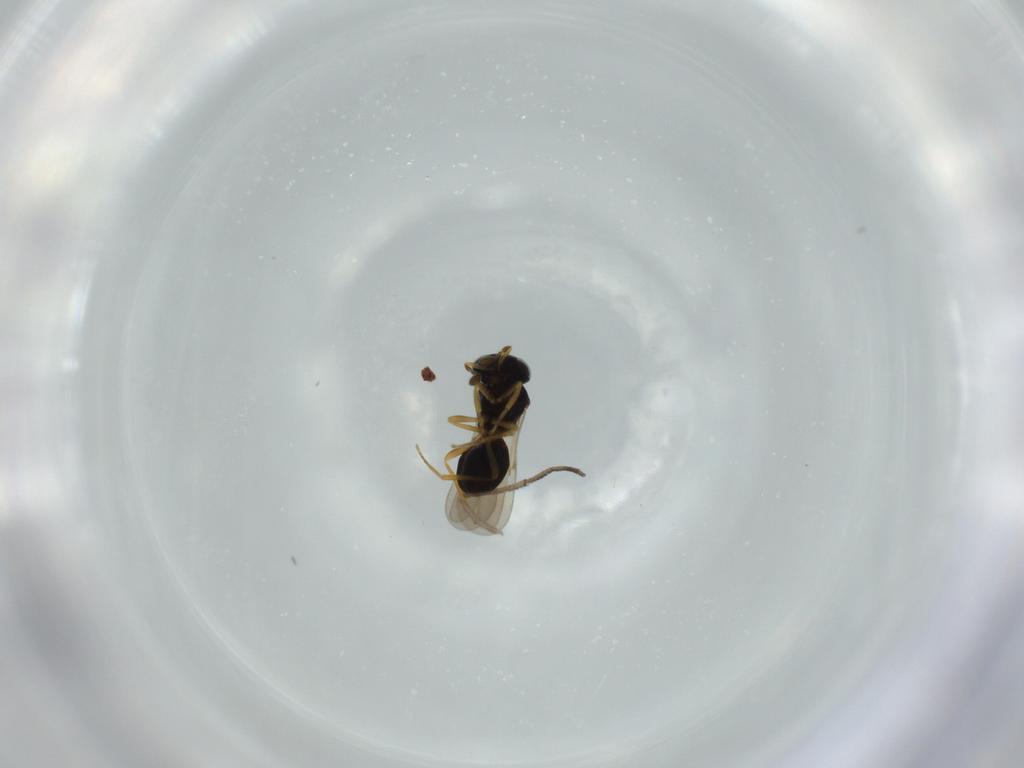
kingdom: Animalia
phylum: Arthropoda
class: Insecta
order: Hymenoptera
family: Scelionidae
